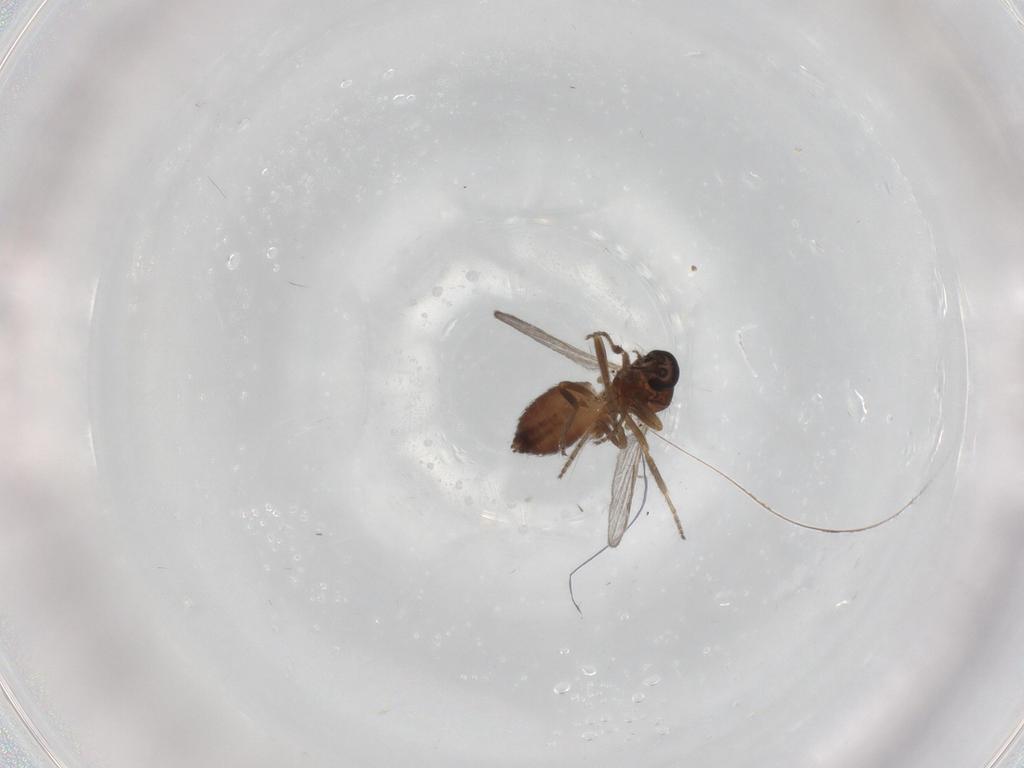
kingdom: Animalia
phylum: Arthropoda
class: Insecta
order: Diptera
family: Ceratopogonidae
